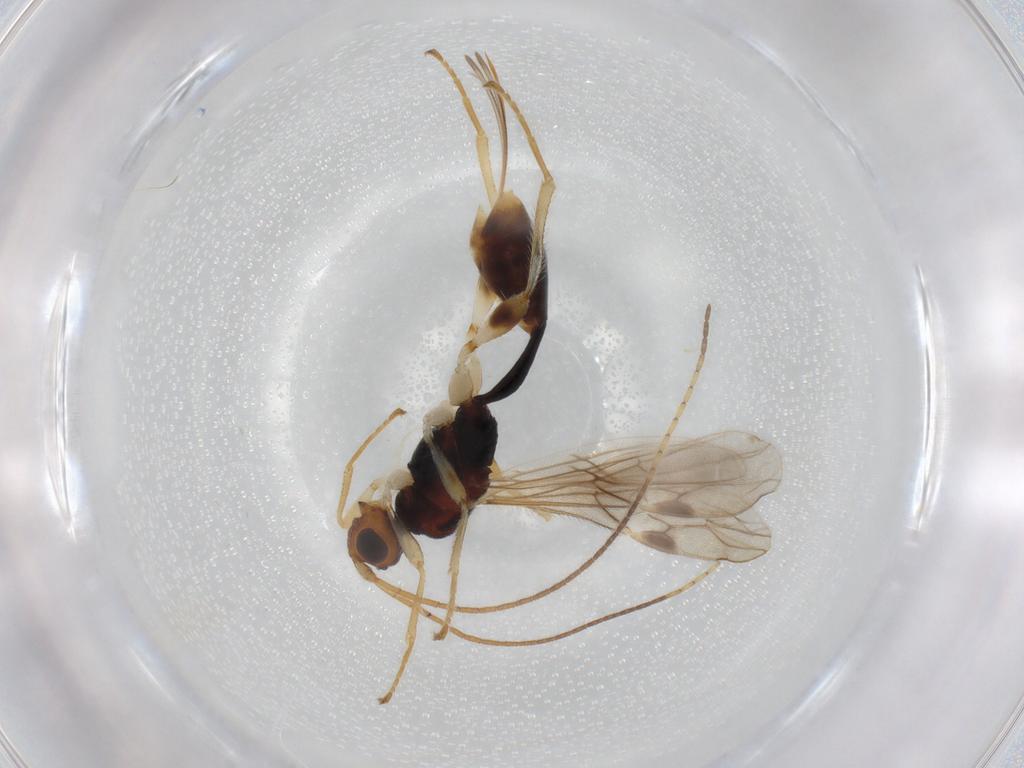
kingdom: Animalia
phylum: Arthropoda
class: Insecta
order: Hymenoptera
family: Braconidae
